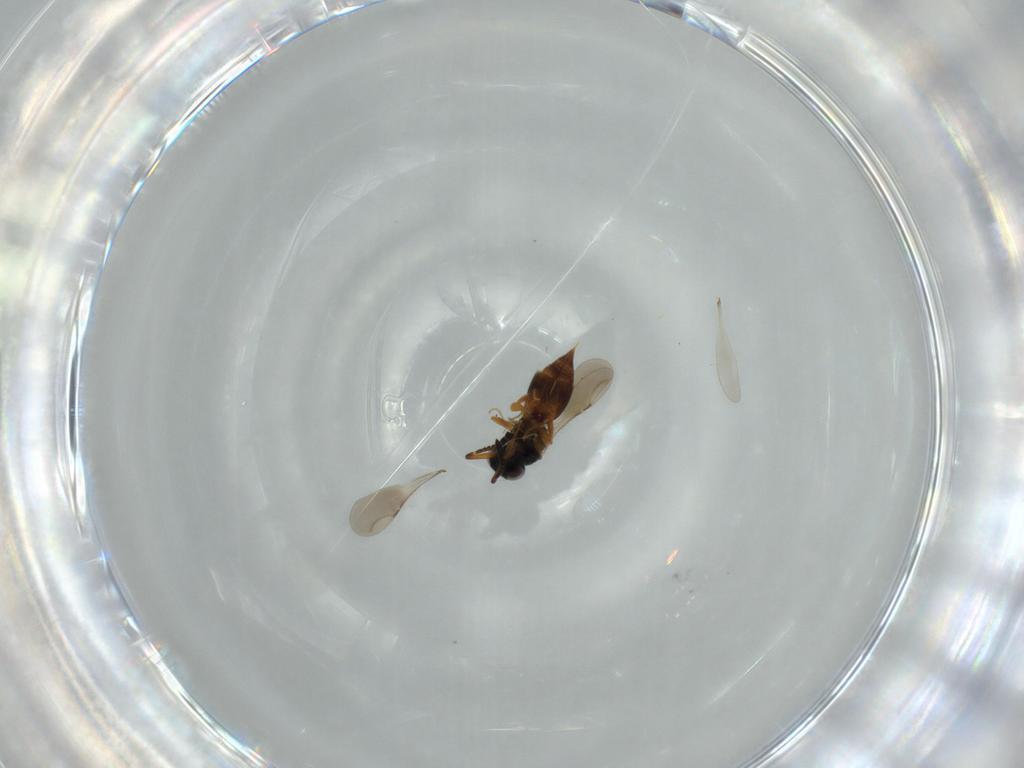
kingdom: Animalia
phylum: Arthropoda
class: Insecta
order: Hymenoptera
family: Ceraphronidae
